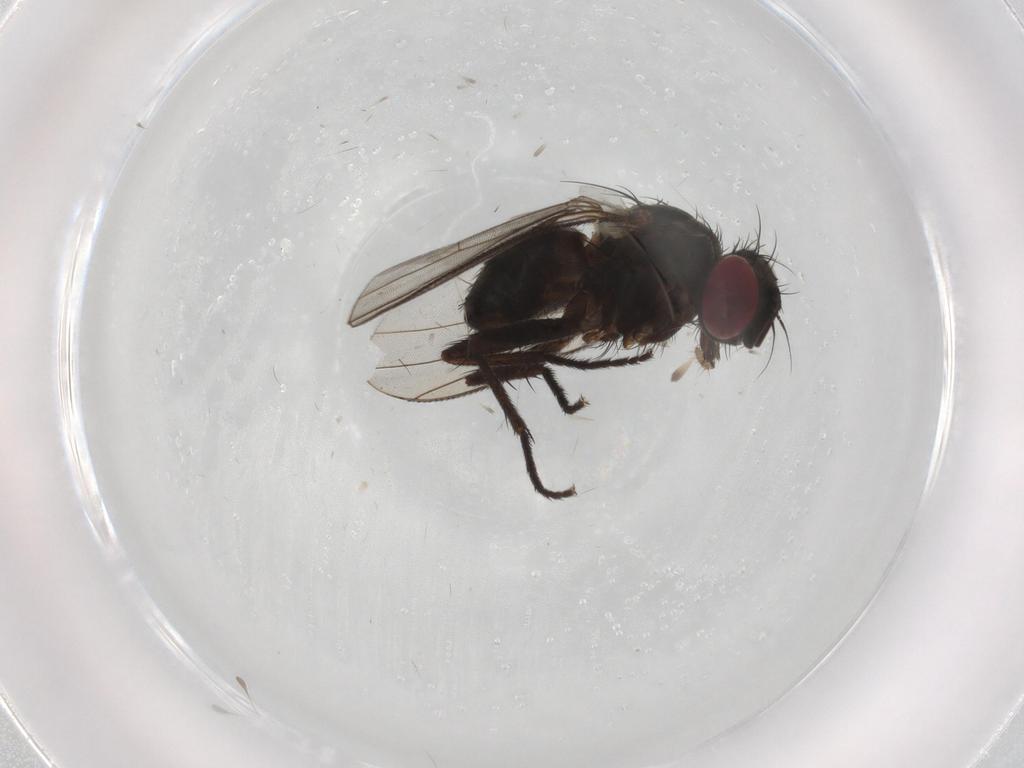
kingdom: Animalia
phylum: Arthropoda
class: Insecta
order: Diptera
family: Muscidae
